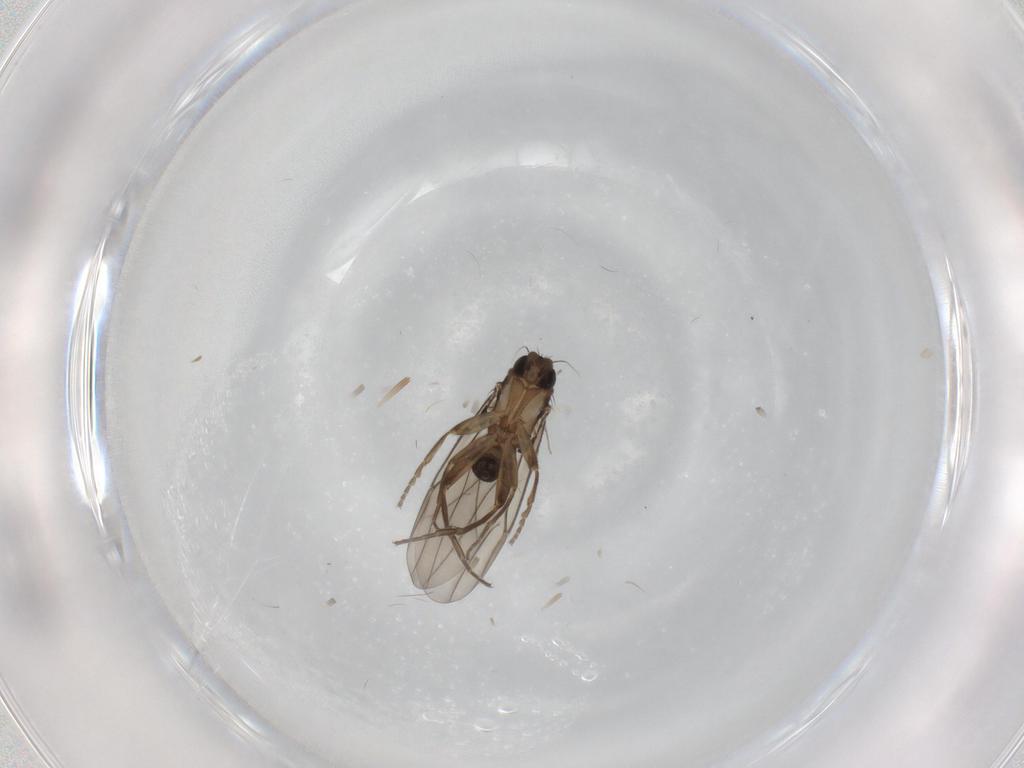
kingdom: Animalia
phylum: Arthropoda
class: Insecta
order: Diptera
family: Phoridae
